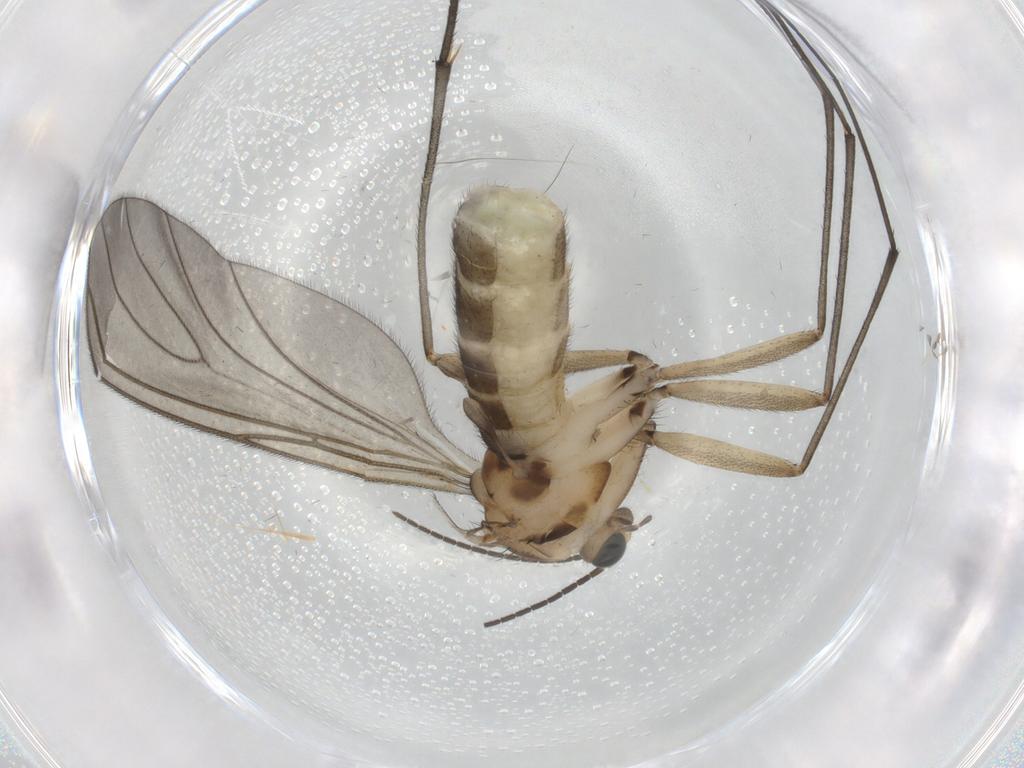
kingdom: Animalia
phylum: Arthropoda
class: Insecta
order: Diptera
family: Sciaridae
